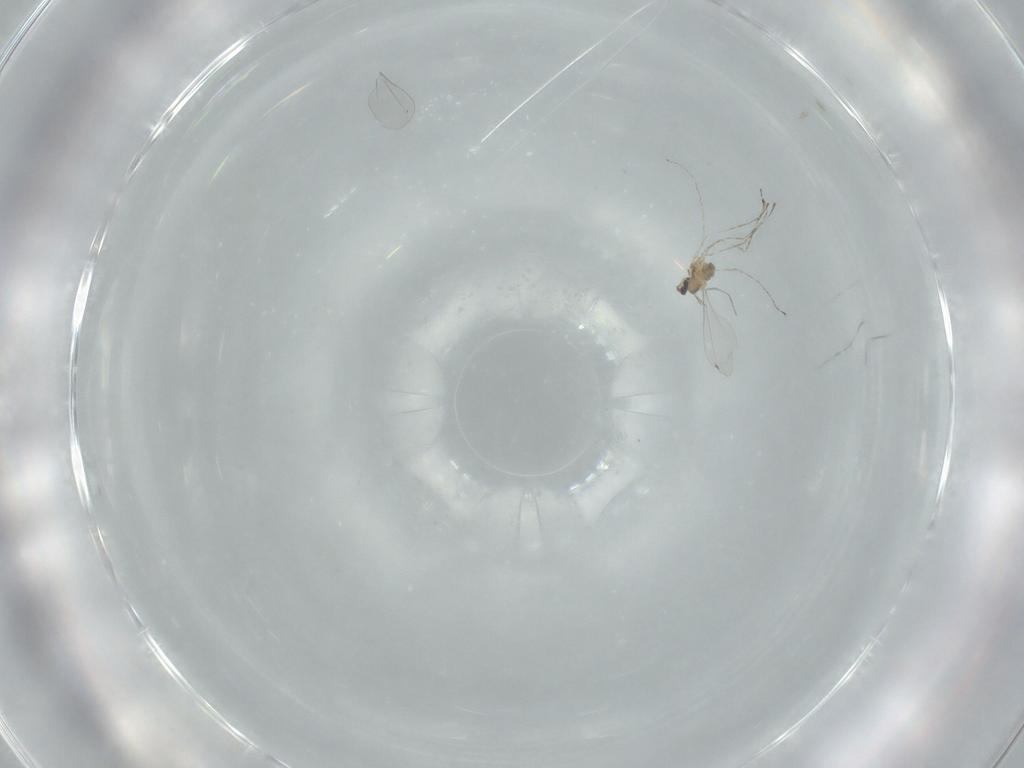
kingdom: Animalia
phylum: Arthropoda
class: Insecta
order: Diptera
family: Cecidomyiidae
